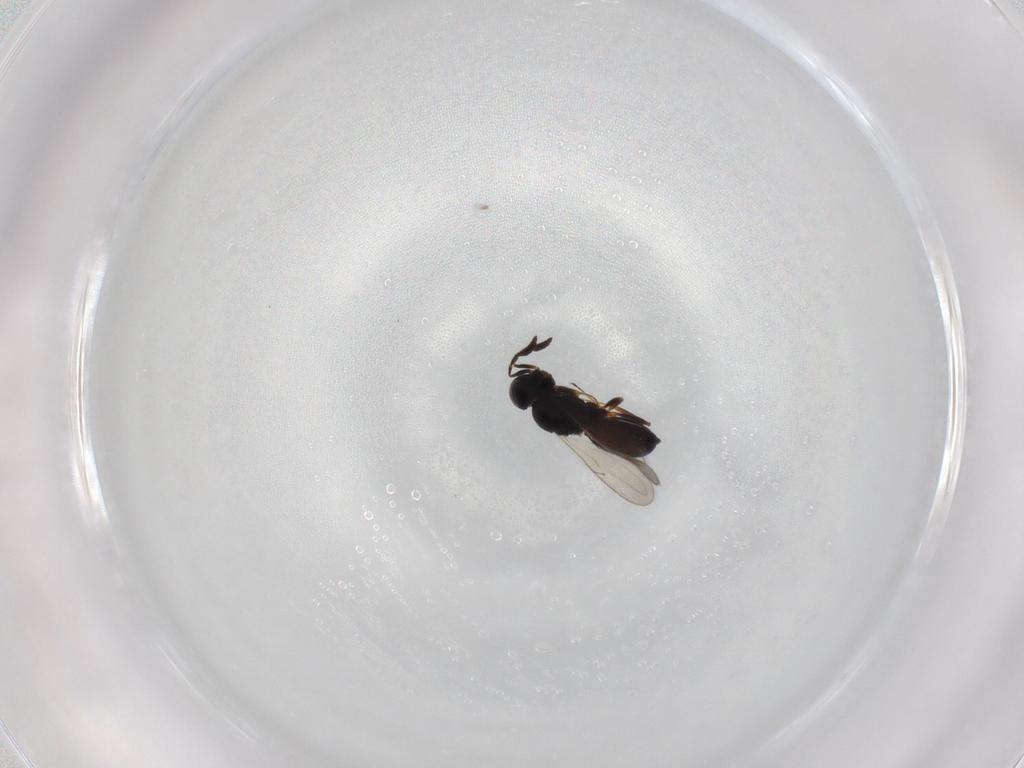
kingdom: Animalia
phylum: Arthropoda
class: Insecta
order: Hymenoptera
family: Scelionidae
